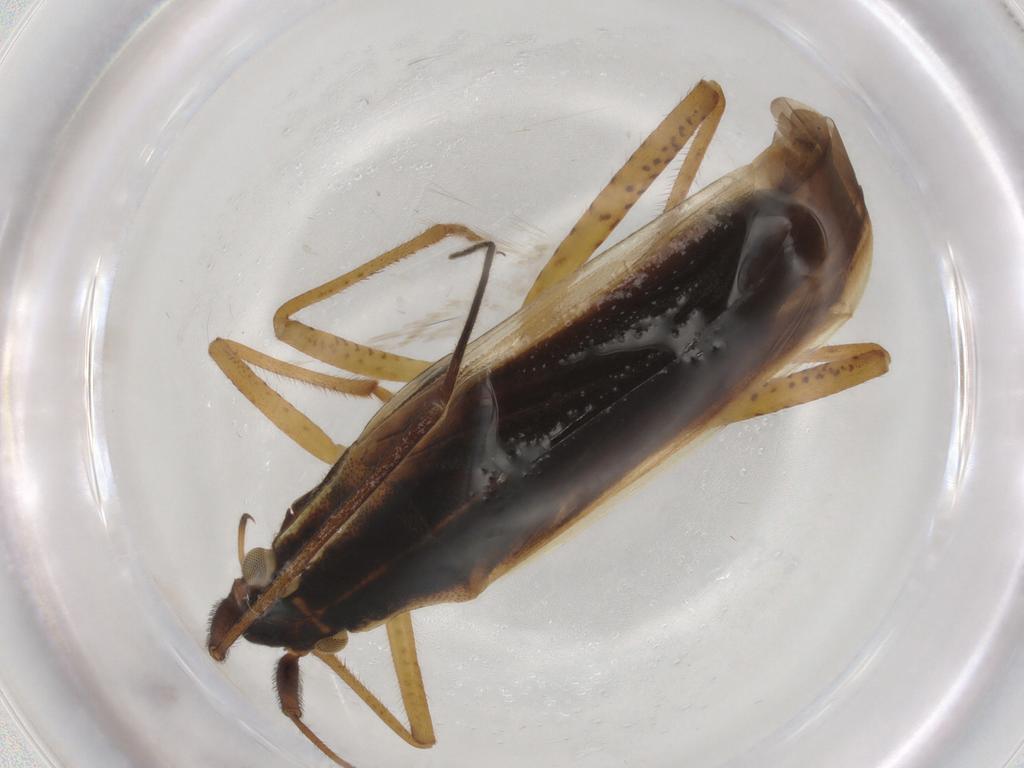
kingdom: Animalia
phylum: Arthropoda
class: Insecta
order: Hemiptera
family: Miridae
